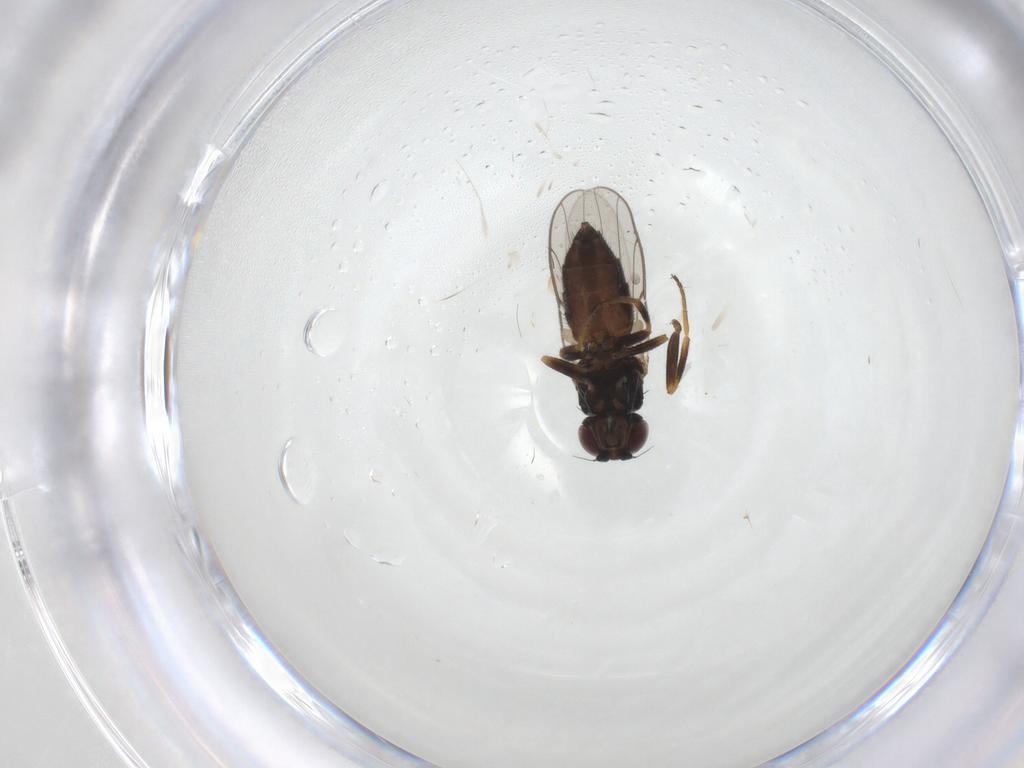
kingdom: Animalia
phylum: Arthropoda
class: Insecta
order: Diptera
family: Chloropidae
